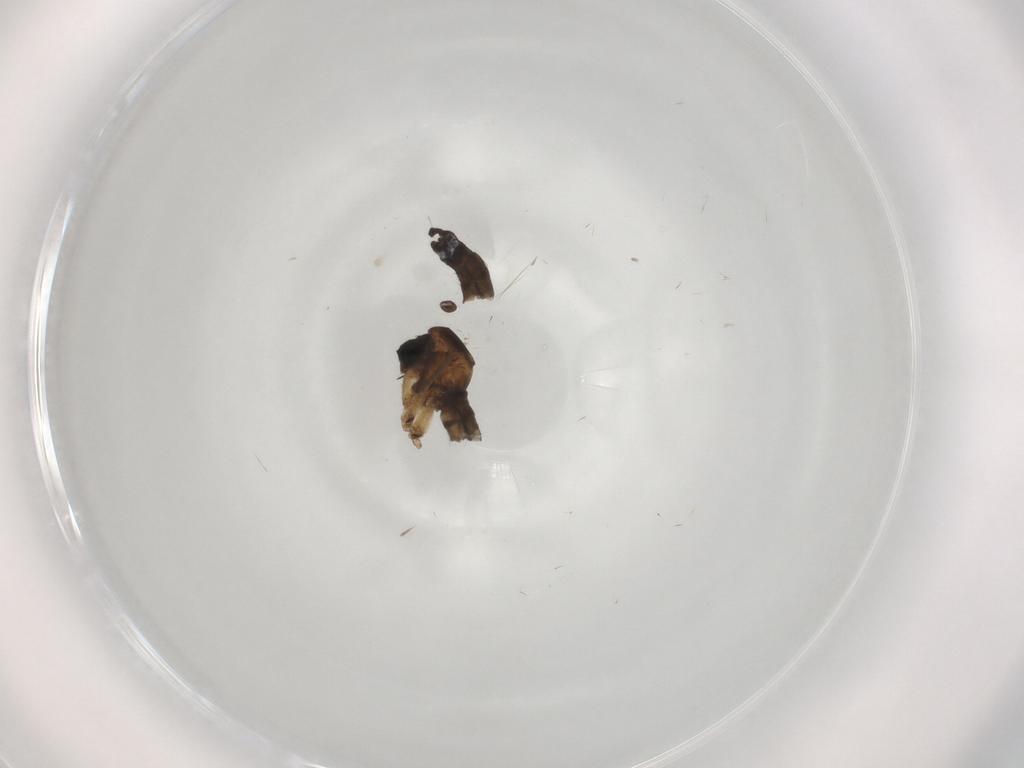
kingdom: Animalia
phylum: Arthropoda
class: Insecta
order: Diptera
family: Sciaridae
